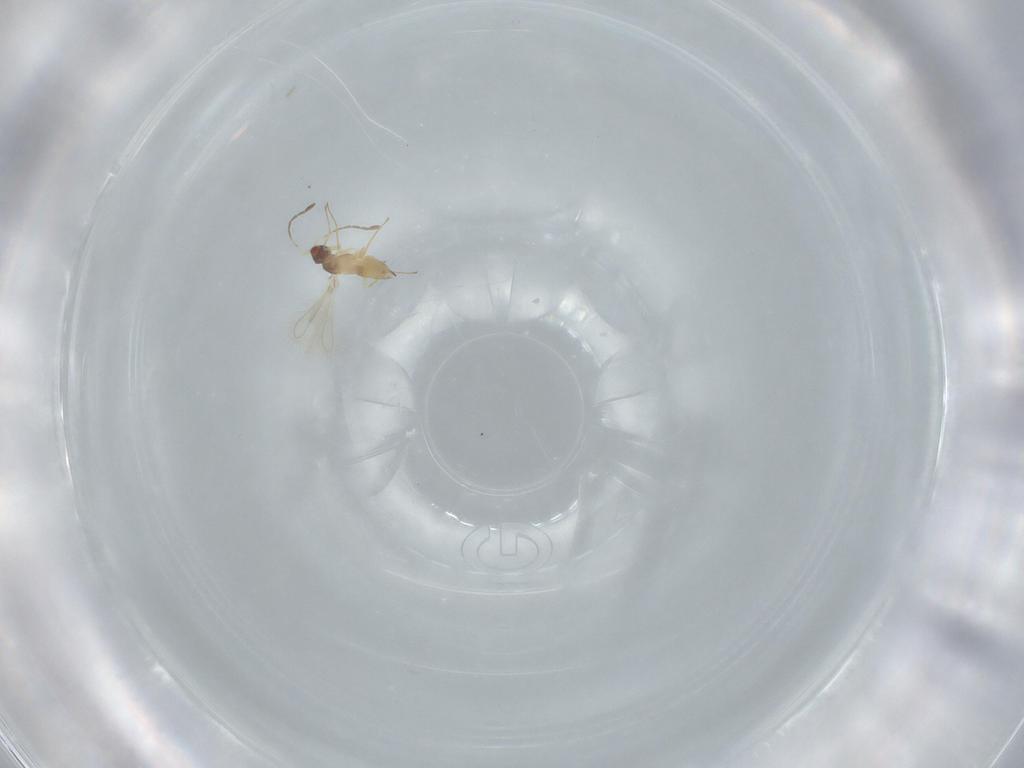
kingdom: Animalia
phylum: Arthropoda
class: Insecta
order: Hymenoptera
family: Mymaridae
